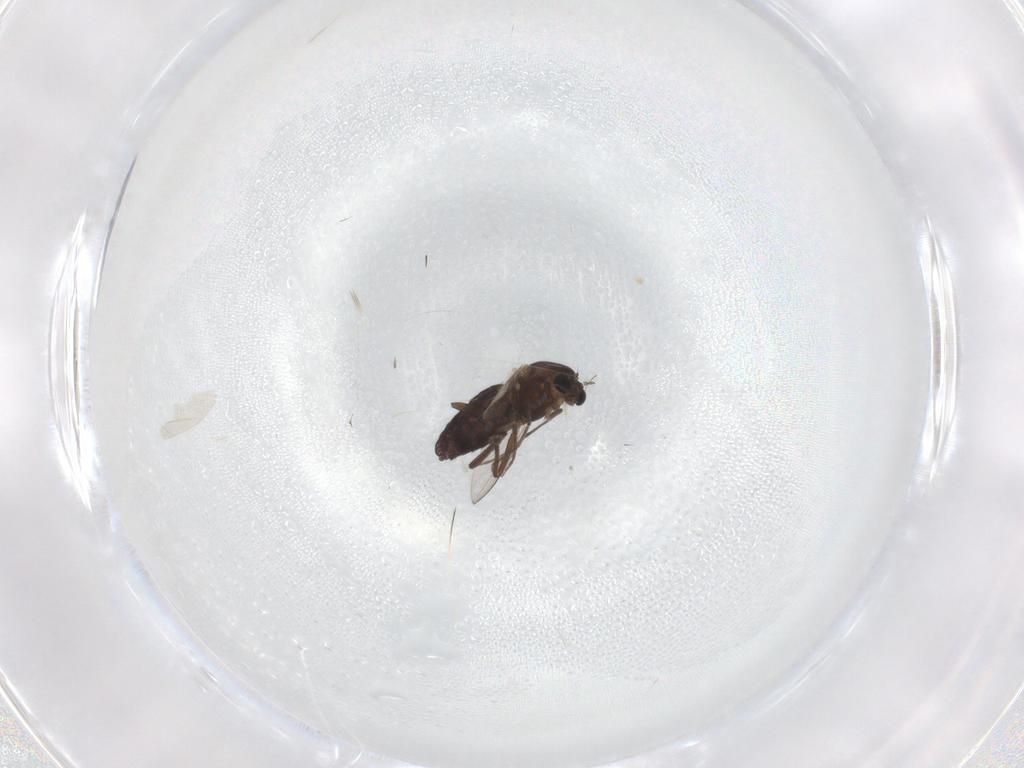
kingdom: Animalia
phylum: Arthropoda
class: Insecta
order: Diptera
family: Chironomidae
